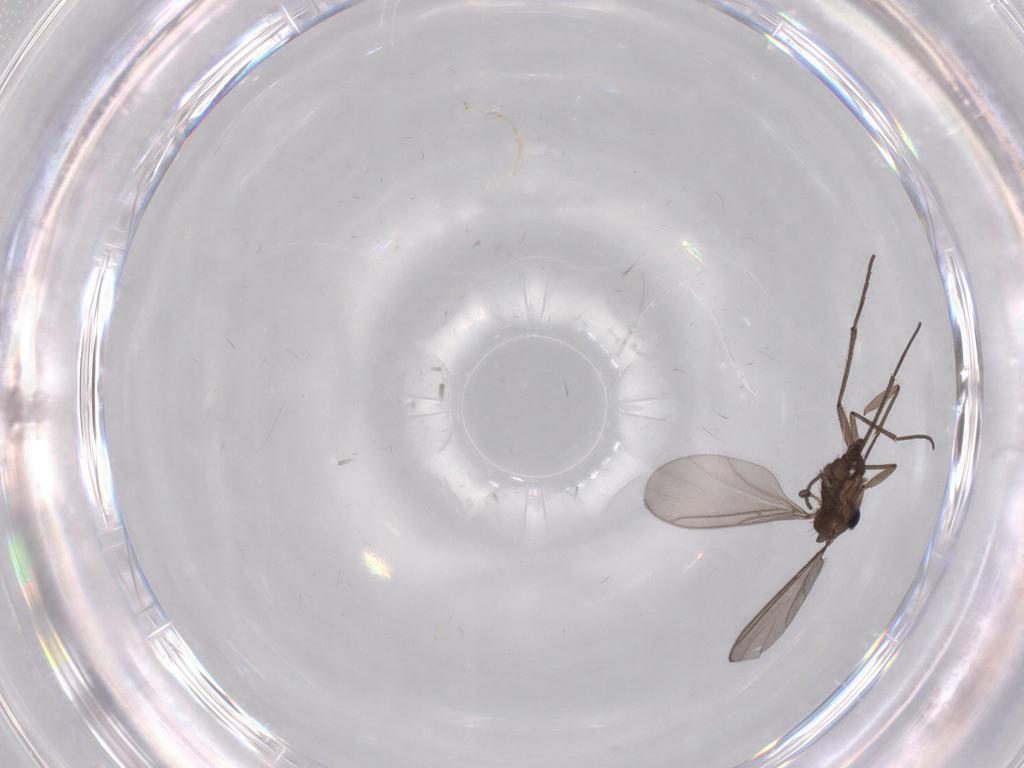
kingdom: Animalia
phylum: Arthropoda
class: Insecta
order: Diptera
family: Sciaridae
